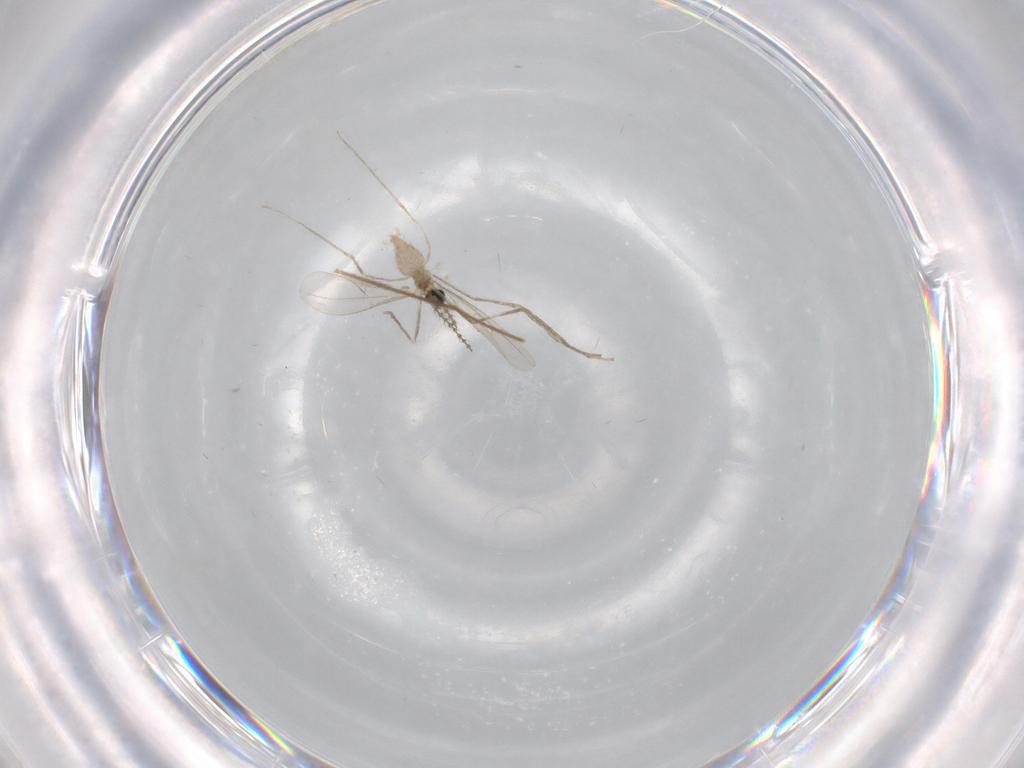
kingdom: Animalia
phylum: Arthropoda
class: Insecta
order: Diptera
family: Cecidomyiidae
